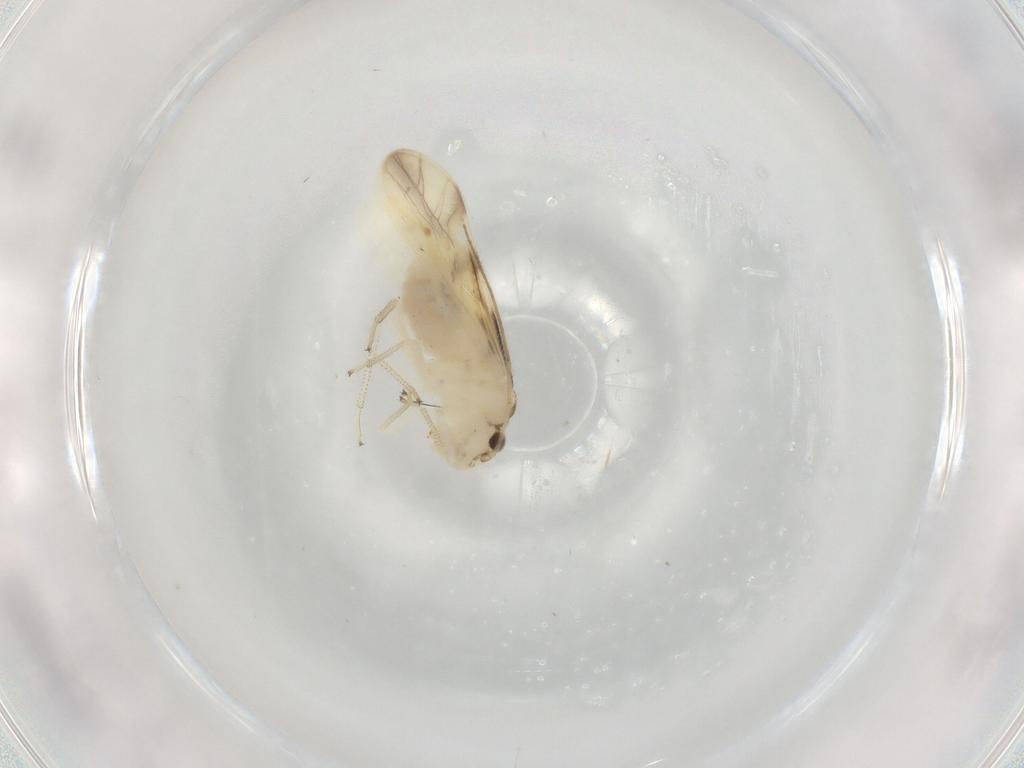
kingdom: Animalia
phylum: Arthropoda
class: Insecta
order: Psocodea
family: Caeciliusidae
